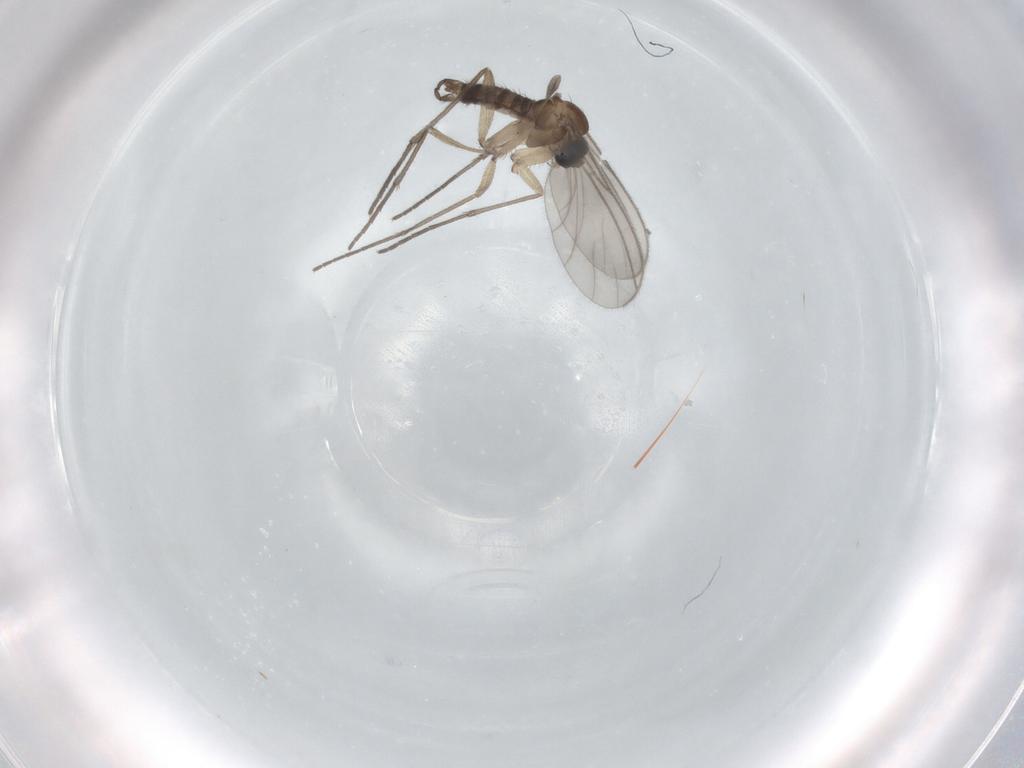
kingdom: Animalia
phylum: Arthropoda
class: Insecta
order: Diptera
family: Sciaridae
